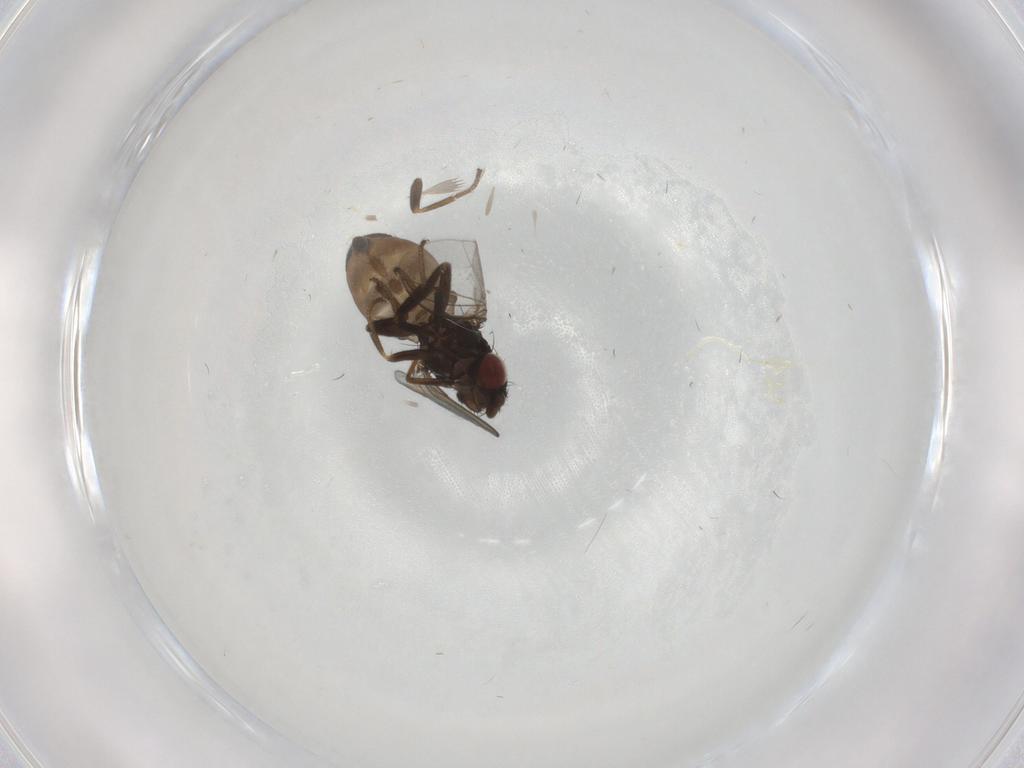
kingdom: Animalia
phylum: Arthropoda
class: Insecta
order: Diptera
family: Milichiidae
